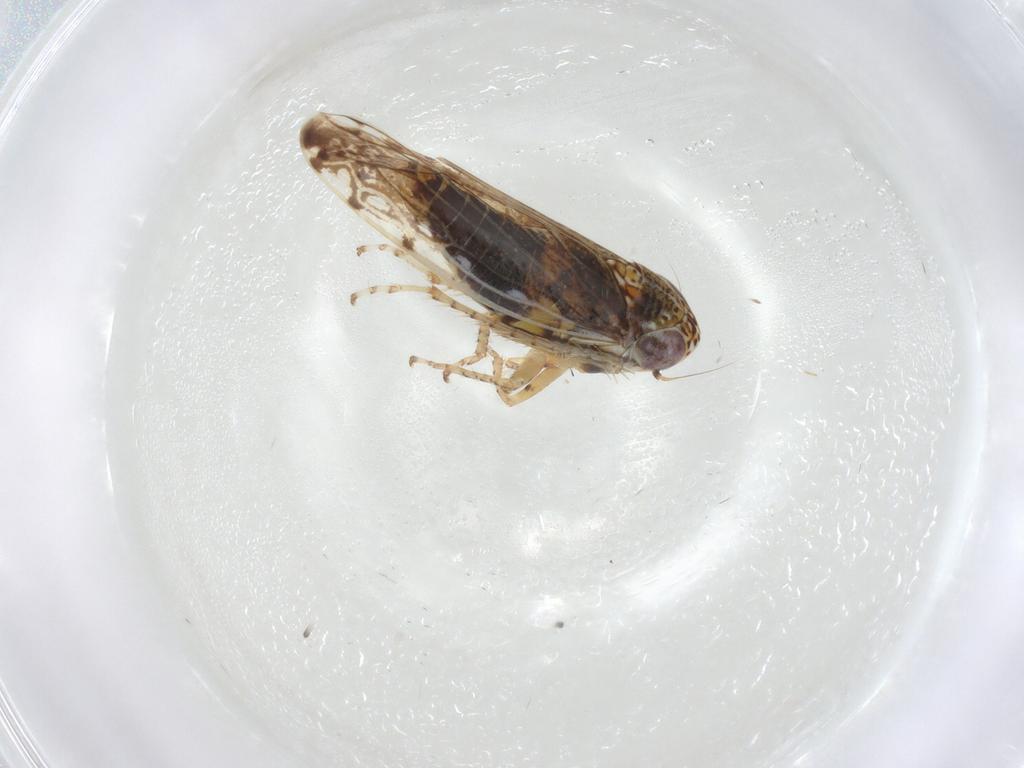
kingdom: Animalia
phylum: Arthropoda
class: Insecta
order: Hemiptera
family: Cicadellidae
